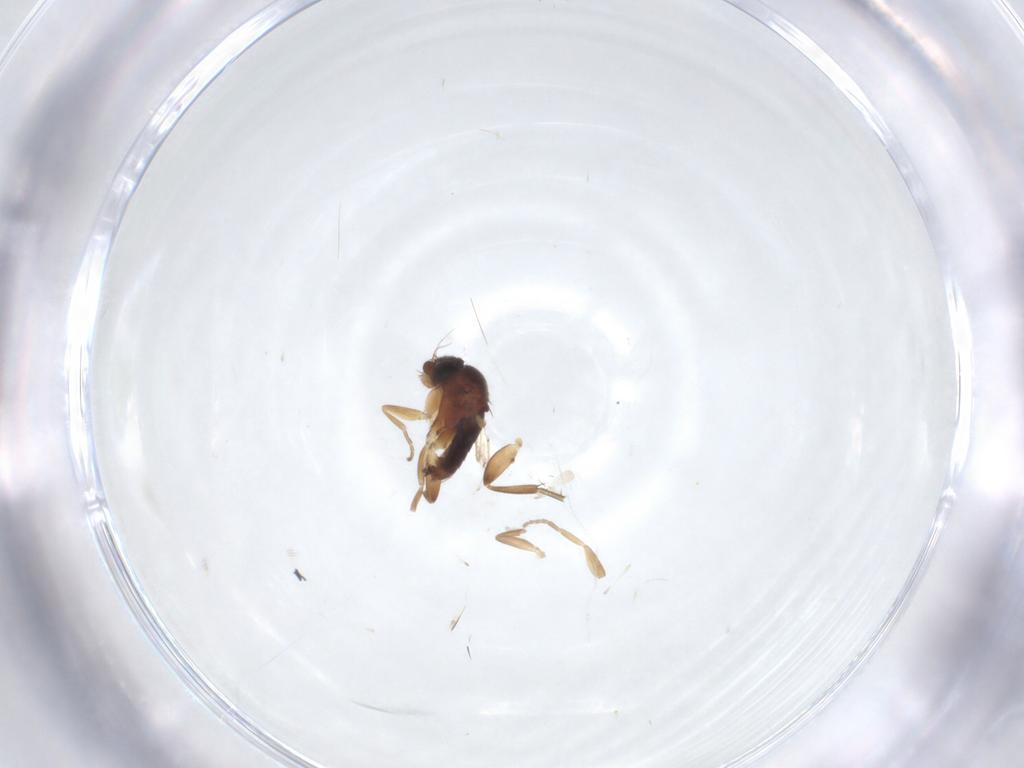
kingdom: Animalia
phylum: Arthropoda
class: Insecta
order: Diptera
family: Phoridae
